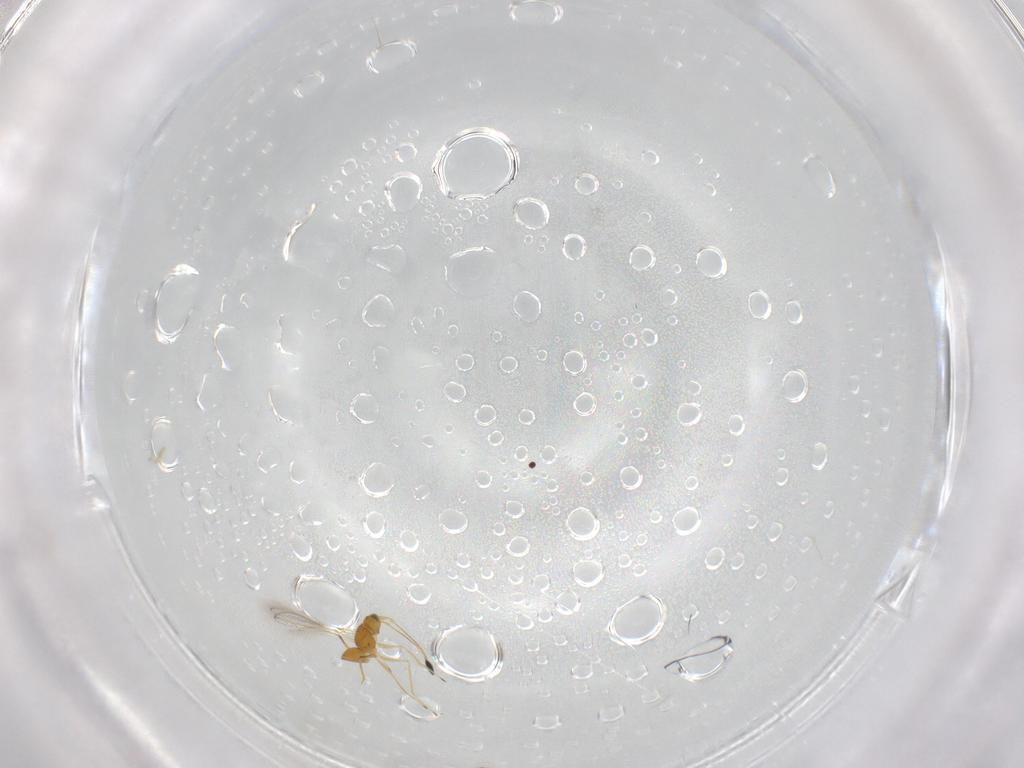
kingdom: Animalia
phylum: Arthropoda
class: Insecta
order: Hymenoptera
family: Mymaridae
